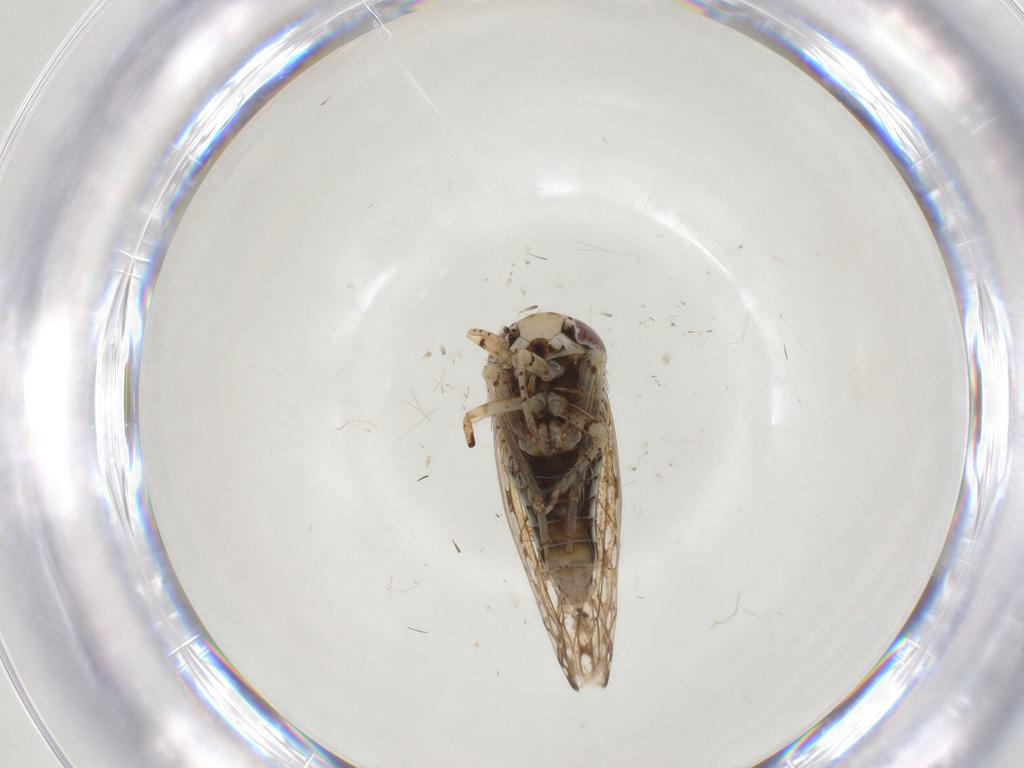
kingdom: Animalia
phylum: Arthropoda
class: Insecta
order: Hemiptera
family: Cicadellidae
